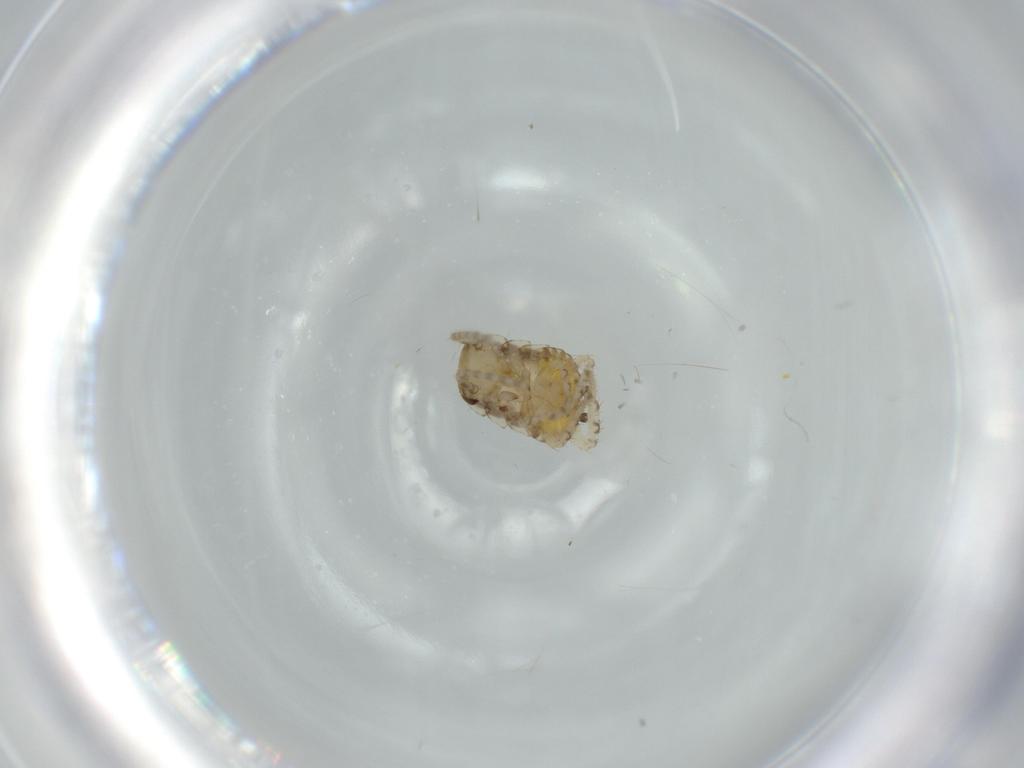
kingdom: Animalia
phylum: Arthropoda
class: Insecta
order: Blattodea
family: Ectobiidae
